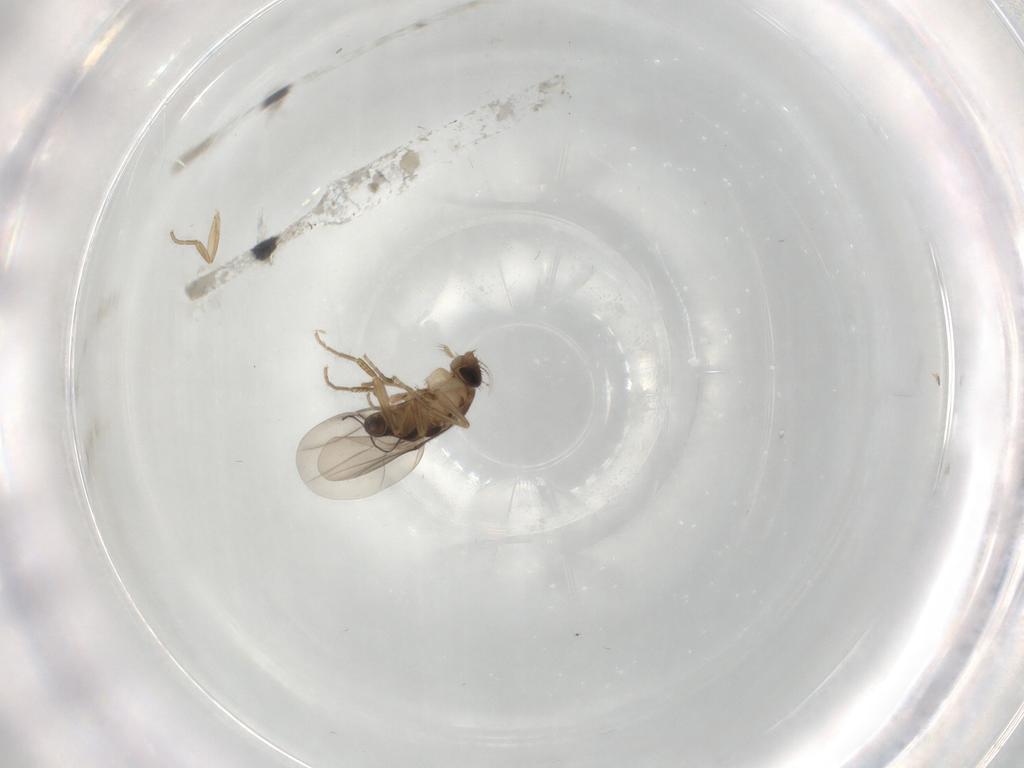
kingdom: Animalia
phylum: Arthropoda
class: Insecta
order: Diptera
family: Phoridae
